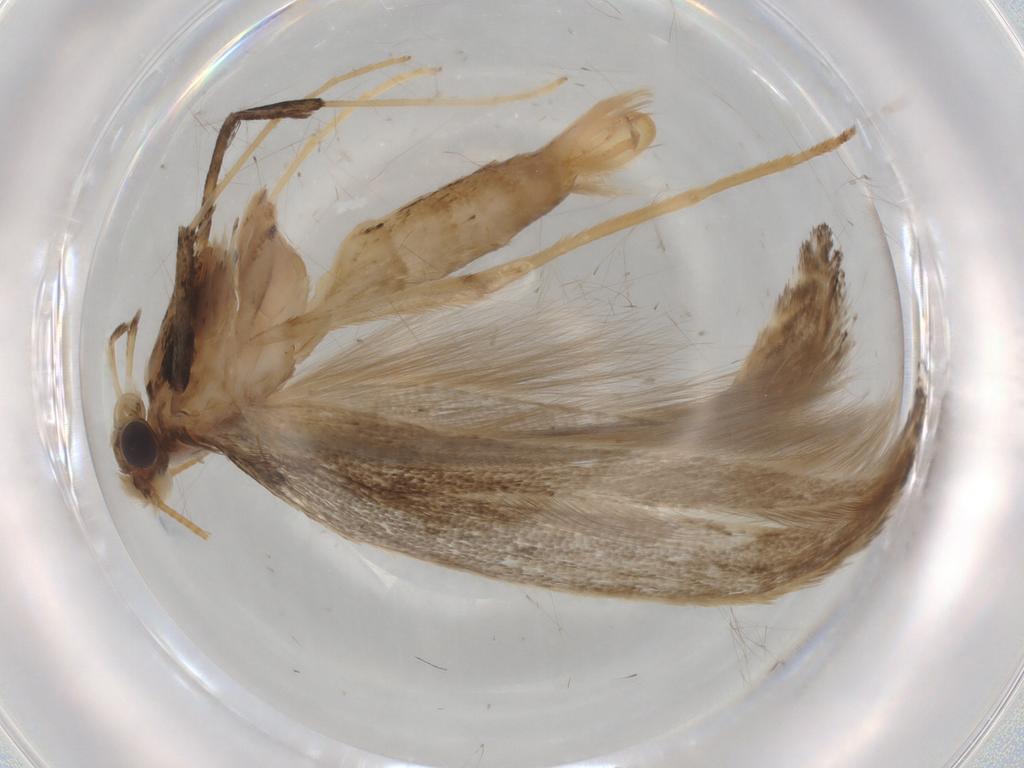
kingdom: Animalia
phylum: Arthropoda
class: Insecta
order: Lepidoptera
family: Gracillariidae
